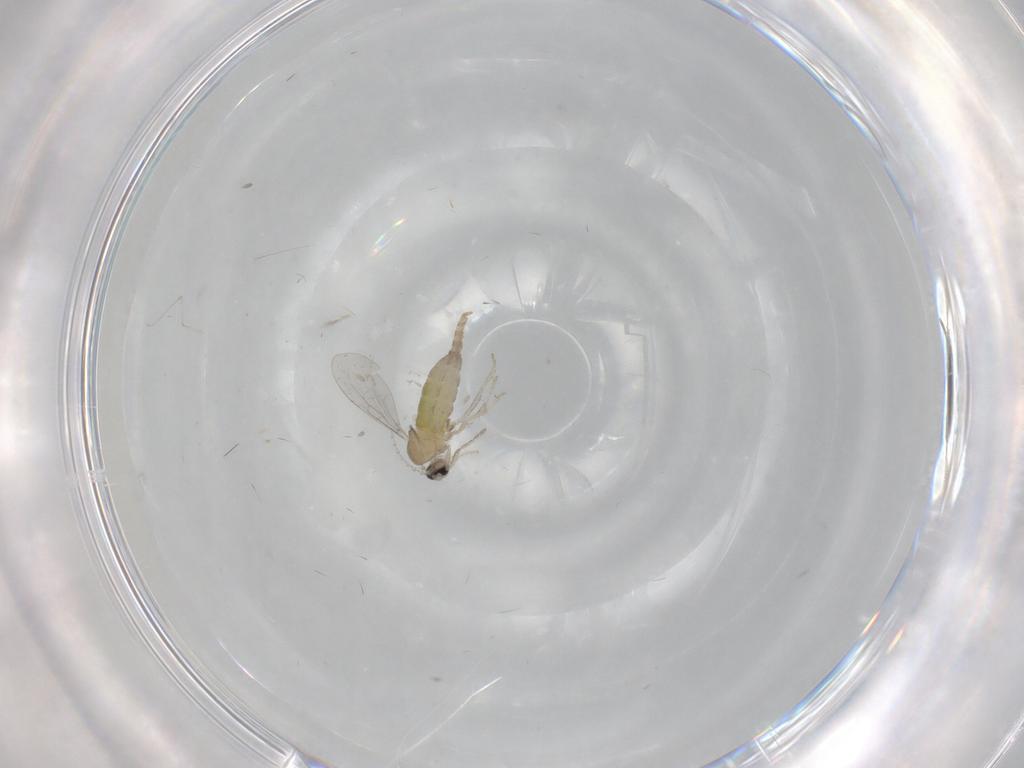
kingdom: Animalia
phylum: Arthropoda
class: Insecta
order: Diptera
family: Cecidomyiidae
